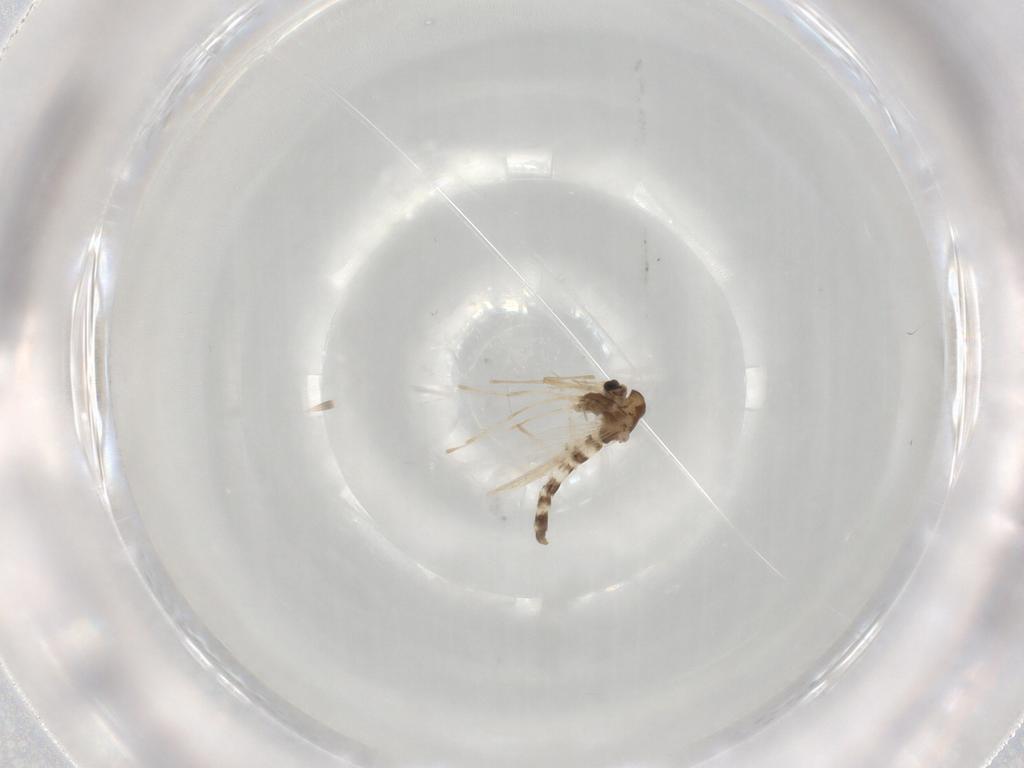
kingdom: Animalia
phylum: Arthropoda
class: Insecta
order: Diptera
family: Chironomidae
